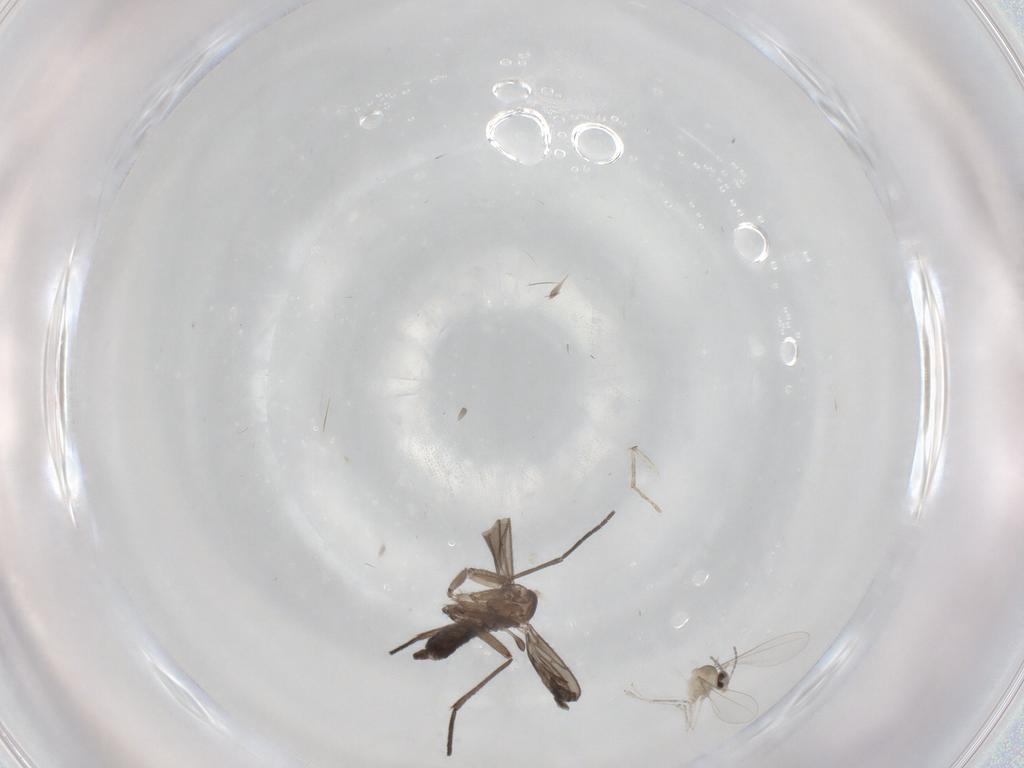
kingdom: Animalia
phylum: Arthropoda
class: Insecta
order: Diptera
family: Cecidomyiidae
